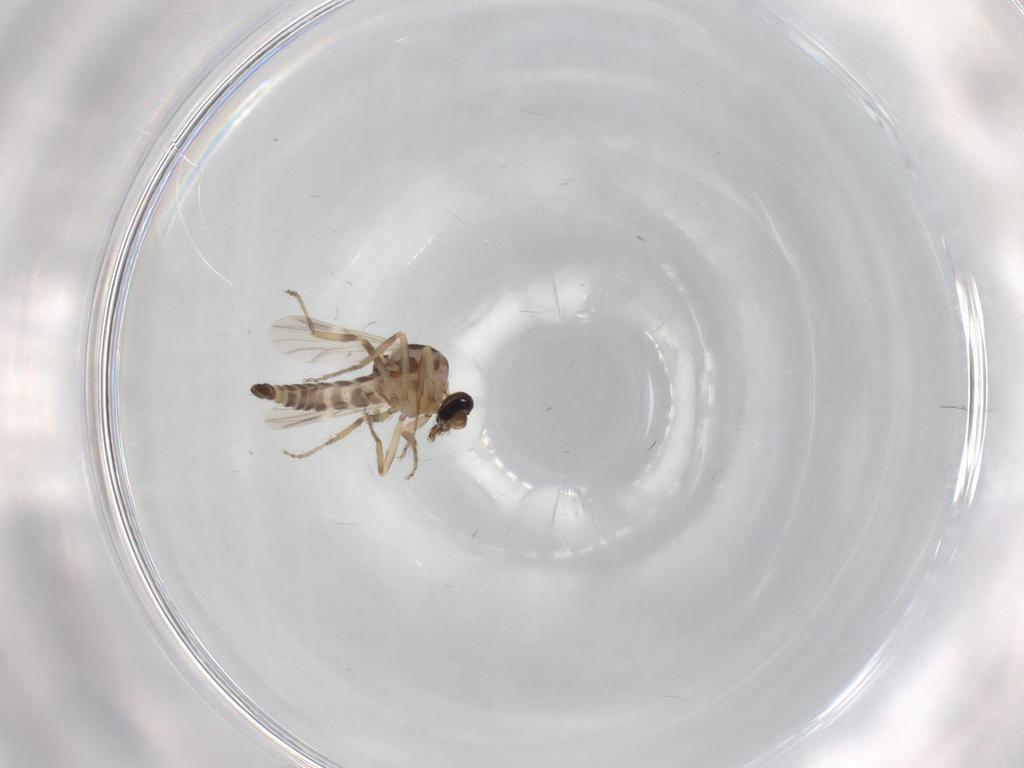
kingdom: Animalia
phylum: Arthropoda
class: Insecta
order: Diptera
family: Ceratopogonidae
